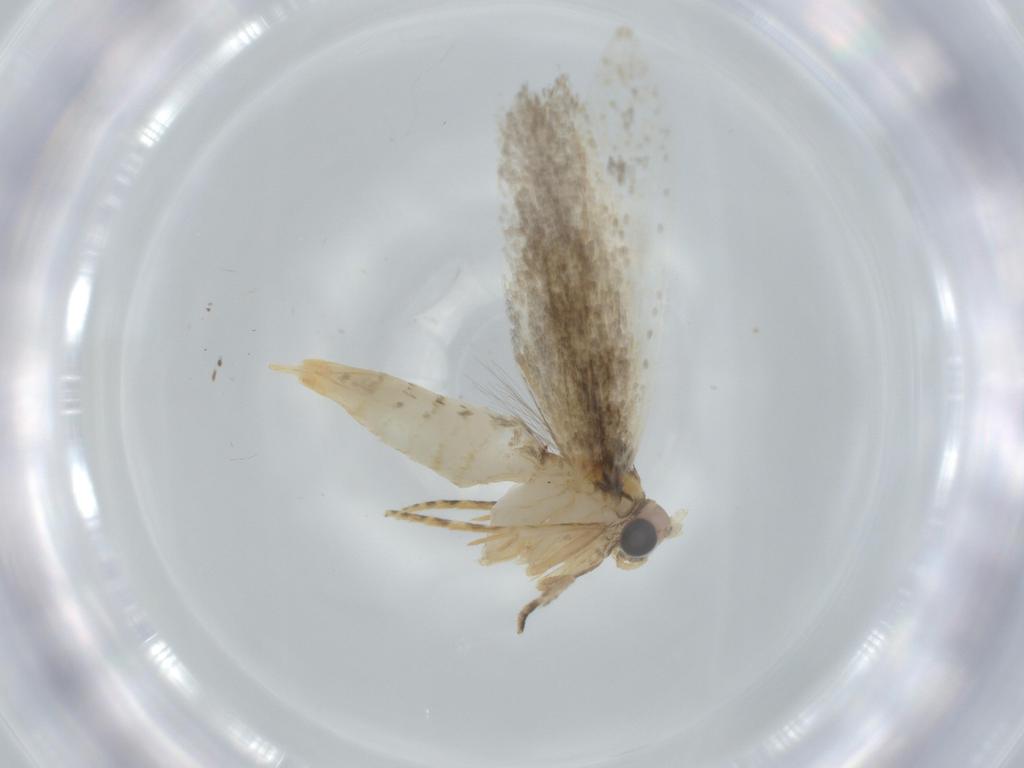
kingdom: Animalia
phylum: Arthropoda
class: Insecta
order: Lepidoptera
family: Tineidae
